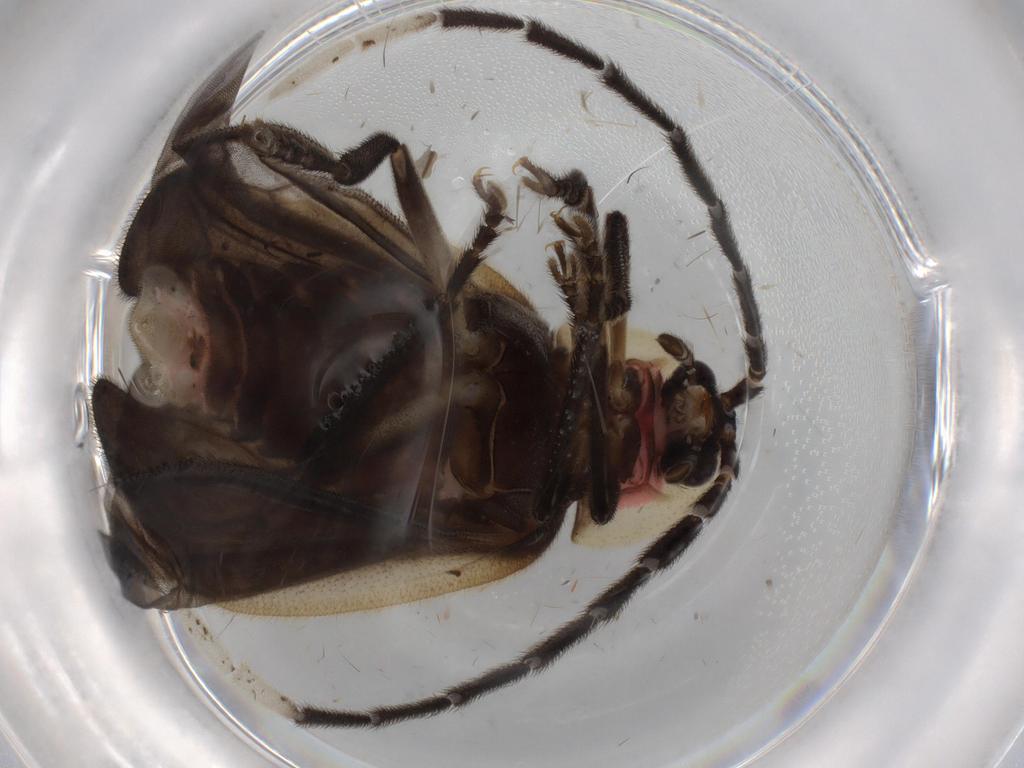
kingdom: Animalia
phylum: Arthropoda
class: Insecta
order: Coleoptera
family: Lampyridae
